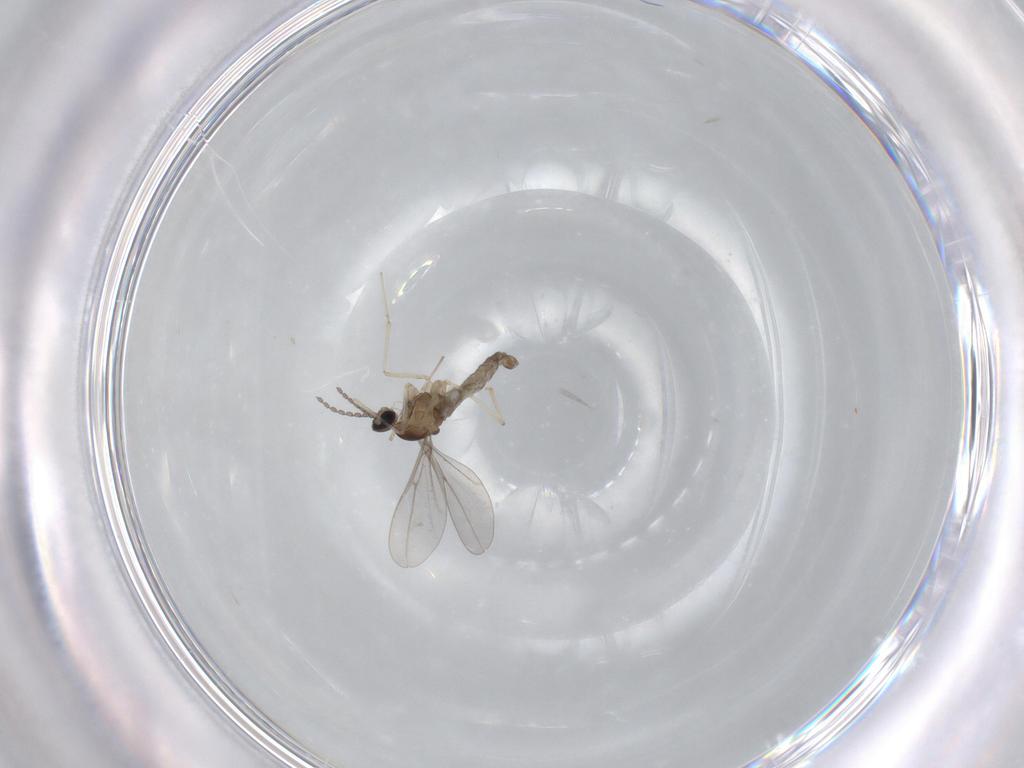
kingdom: Animalia
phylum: Arthropoda
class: Insecta
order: Diptera
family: Cecidomyiidae
